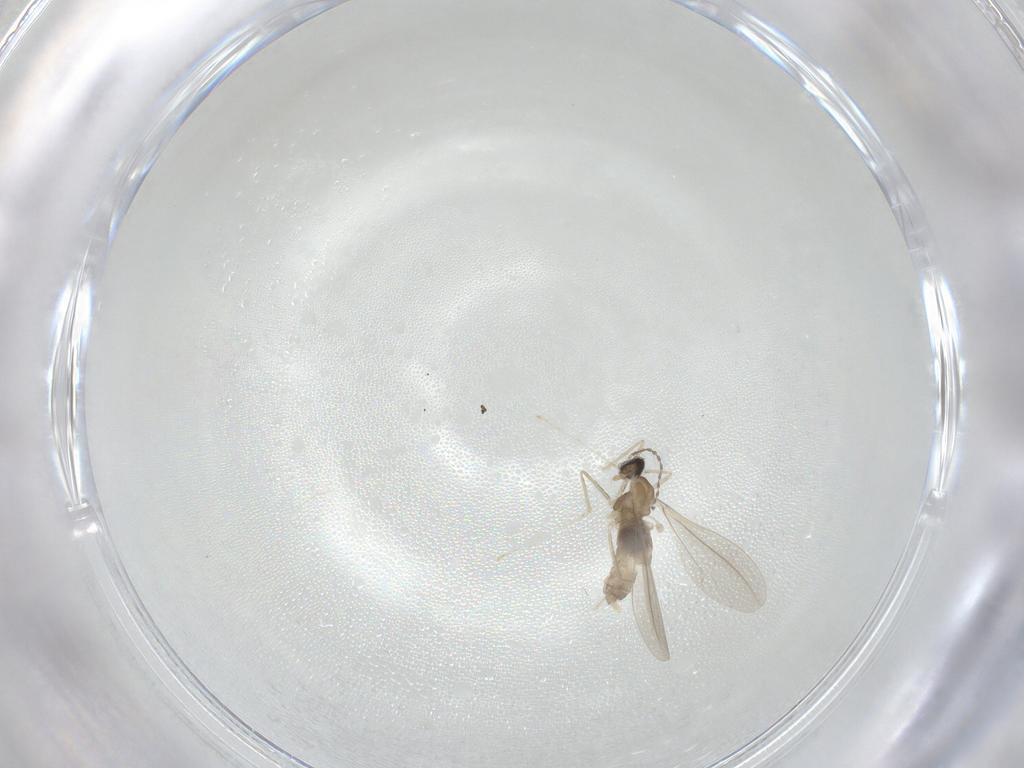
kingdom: Animalia
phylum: Arthropoda
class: Insecta
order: Diptera
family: Cecidomyiidae
